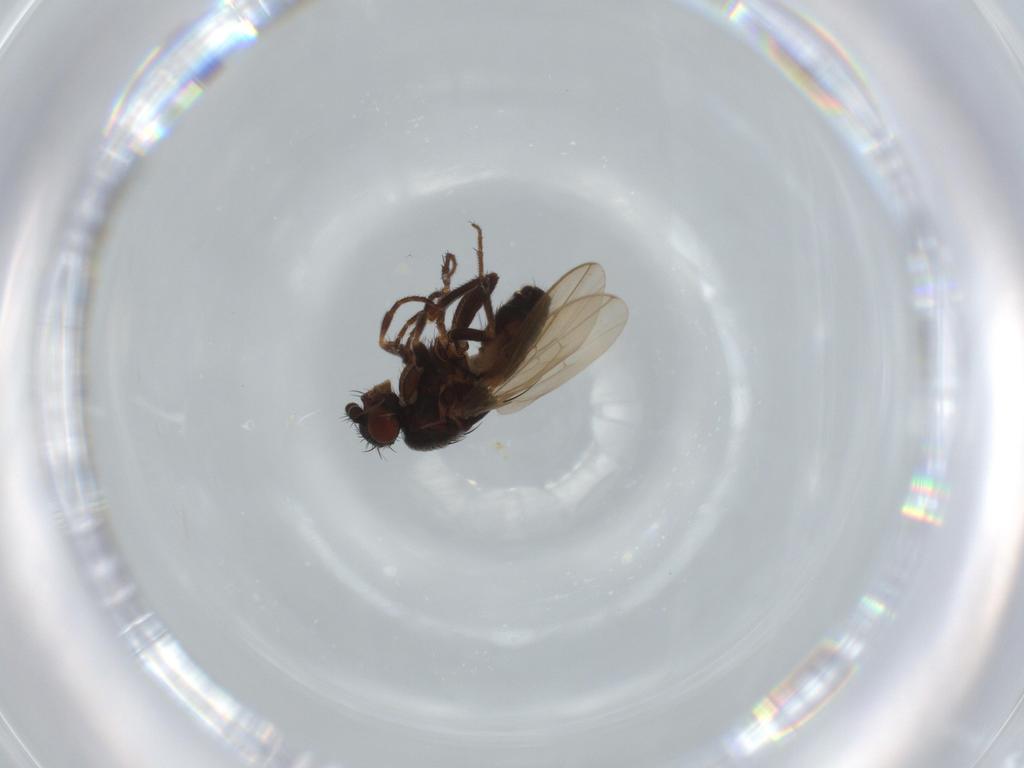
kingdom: Animalia
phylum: Arthropoda
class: Insecta
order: Diptera
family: Sphaeroceridae
